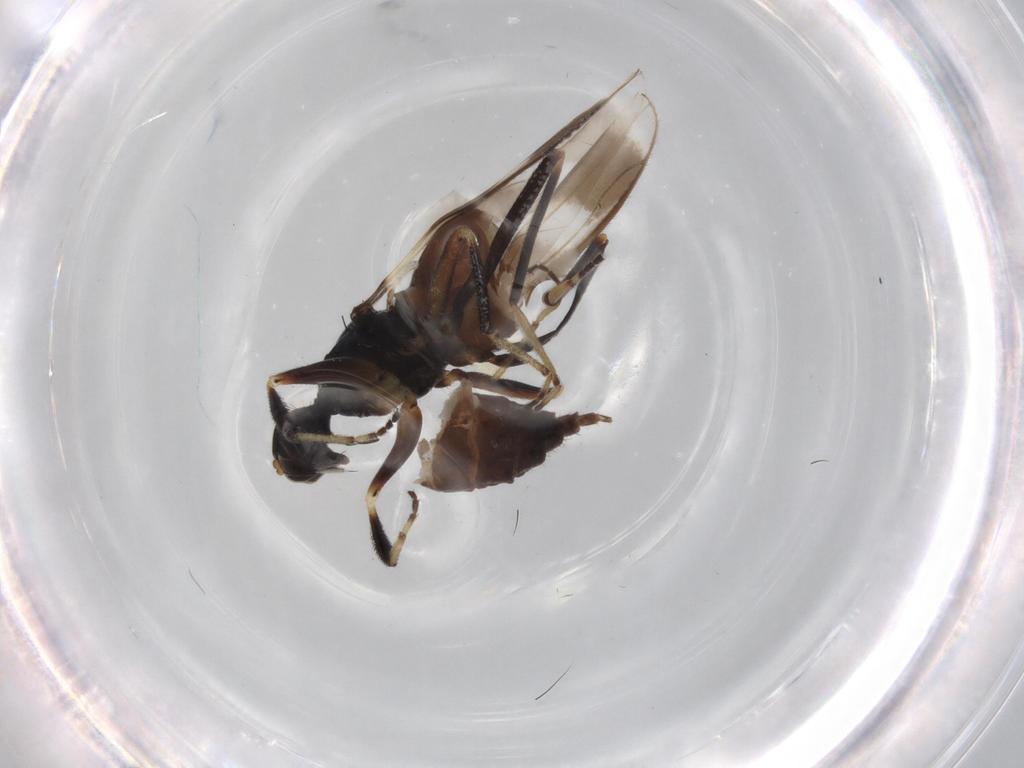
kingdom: Animalia
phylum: Arthropoda
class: Insecta
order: Diptera
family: Hybotidae
